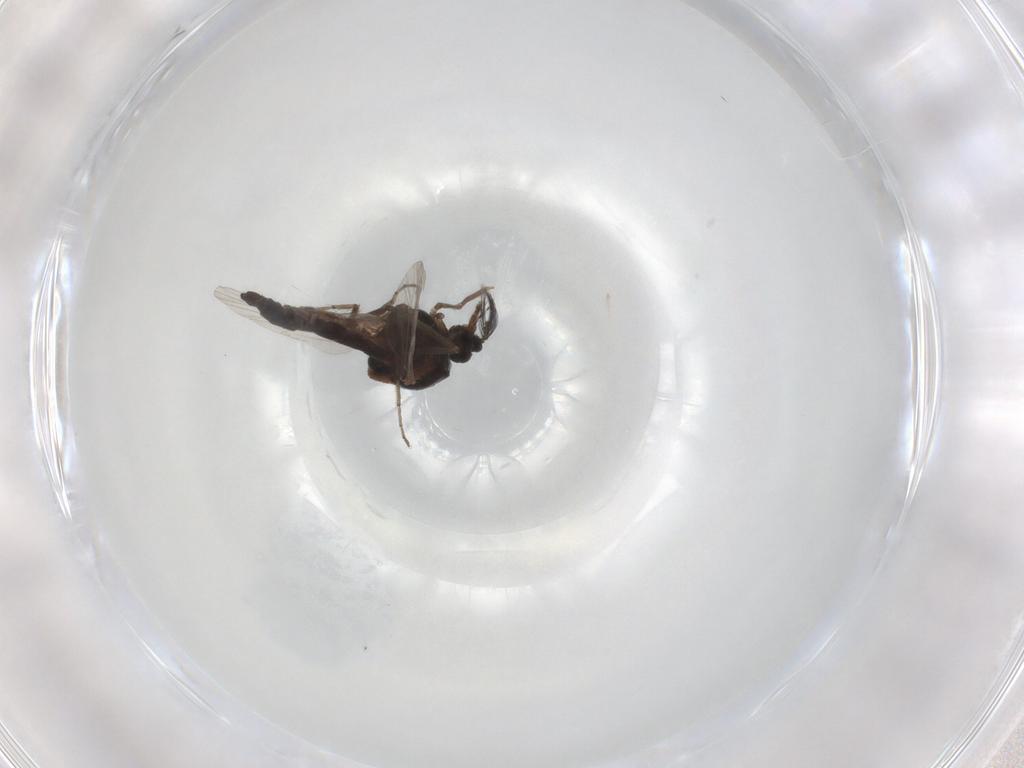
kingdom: Animalia
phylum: Arthropoda
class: Insecta
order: Diptera
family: Ceratopogonidae
